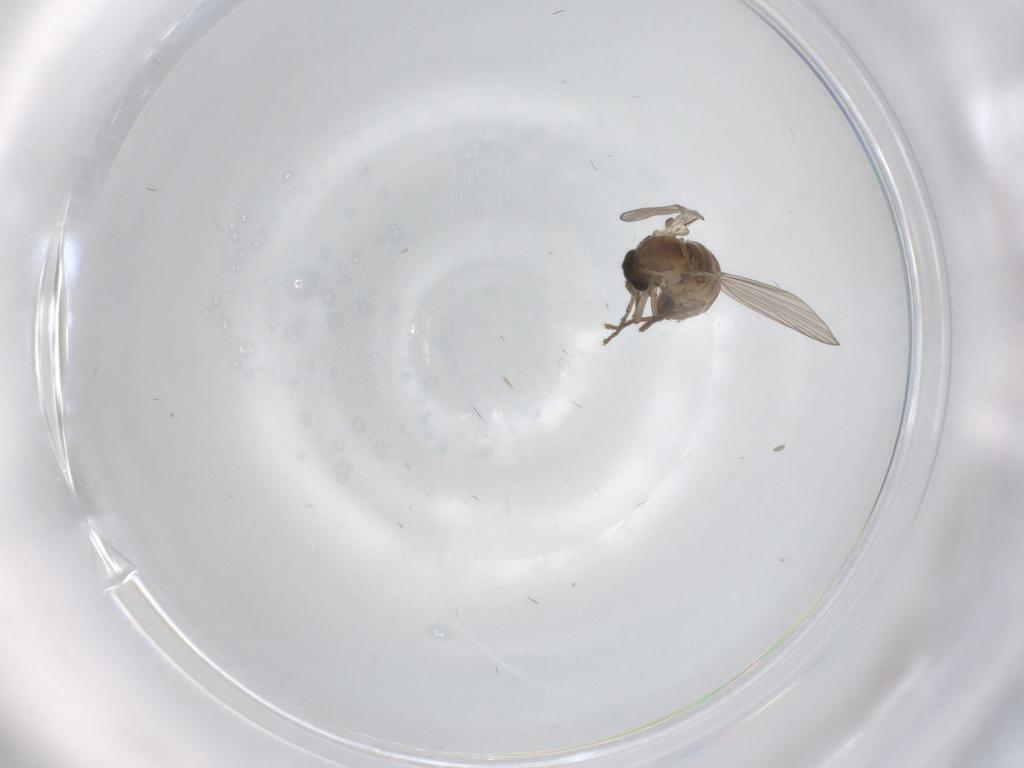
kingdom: Animalia
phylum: Arthropoda
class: Insecta
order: Diptera
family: Psychodidae
